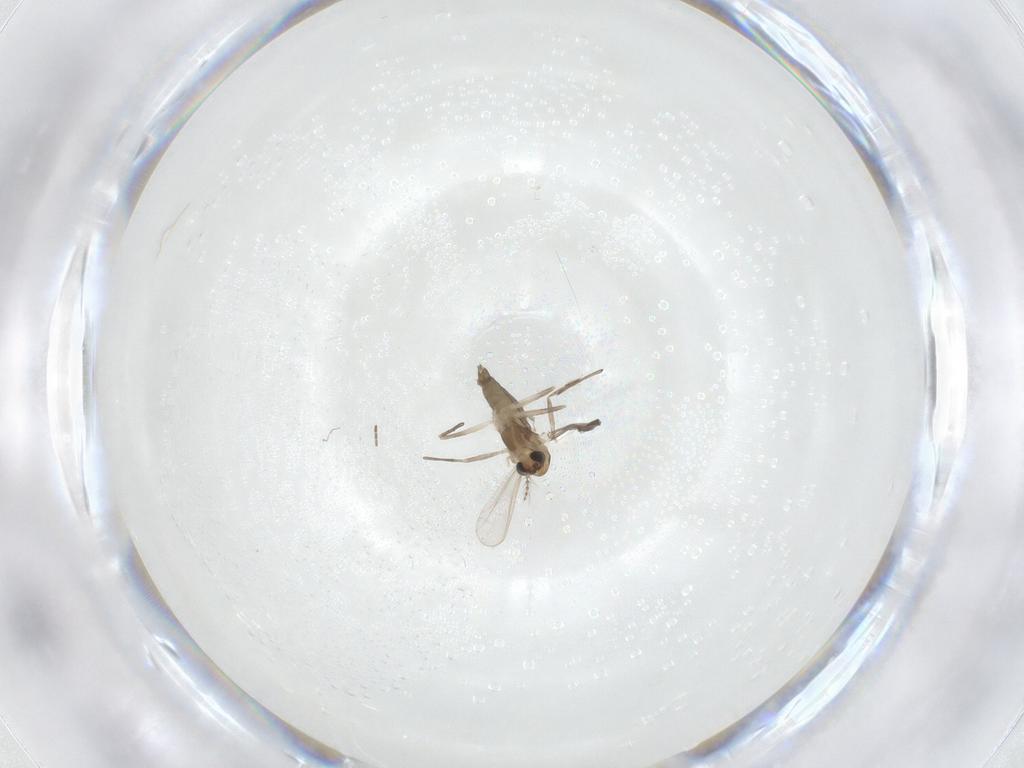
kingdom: Animalia
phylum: Arthropoda
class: Insecta
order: Diptera
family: Chironomidae
